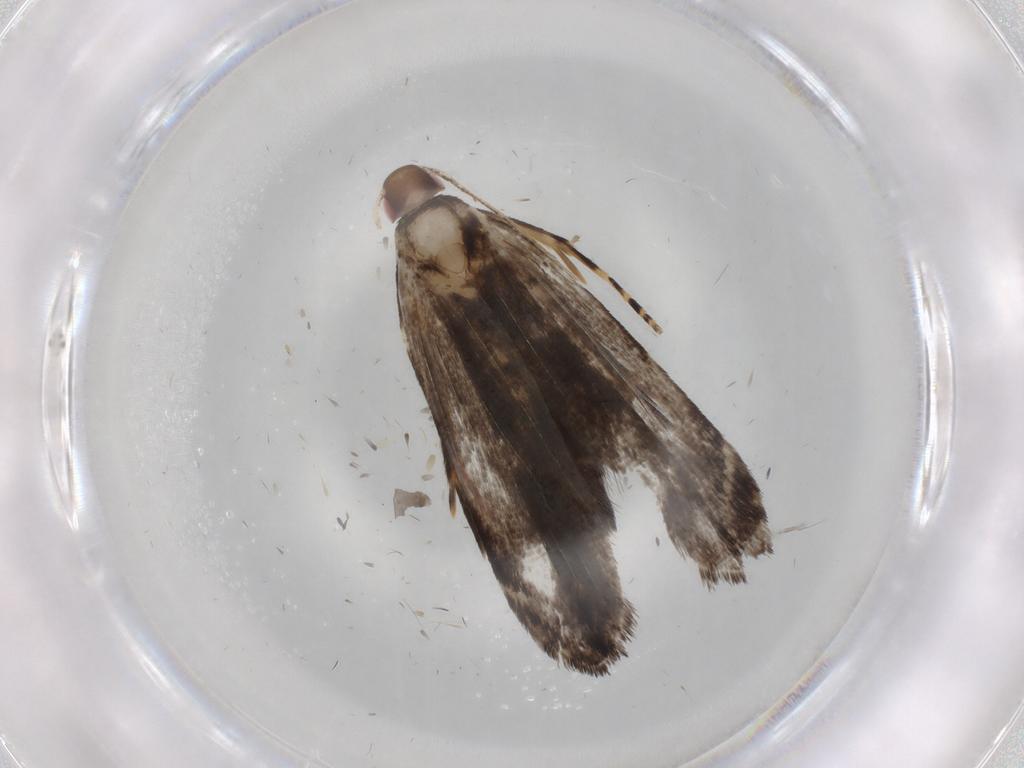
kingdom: Animalia
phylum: Arthropoda
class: Insecta
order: Lepidoptera
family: Gelechiidae
